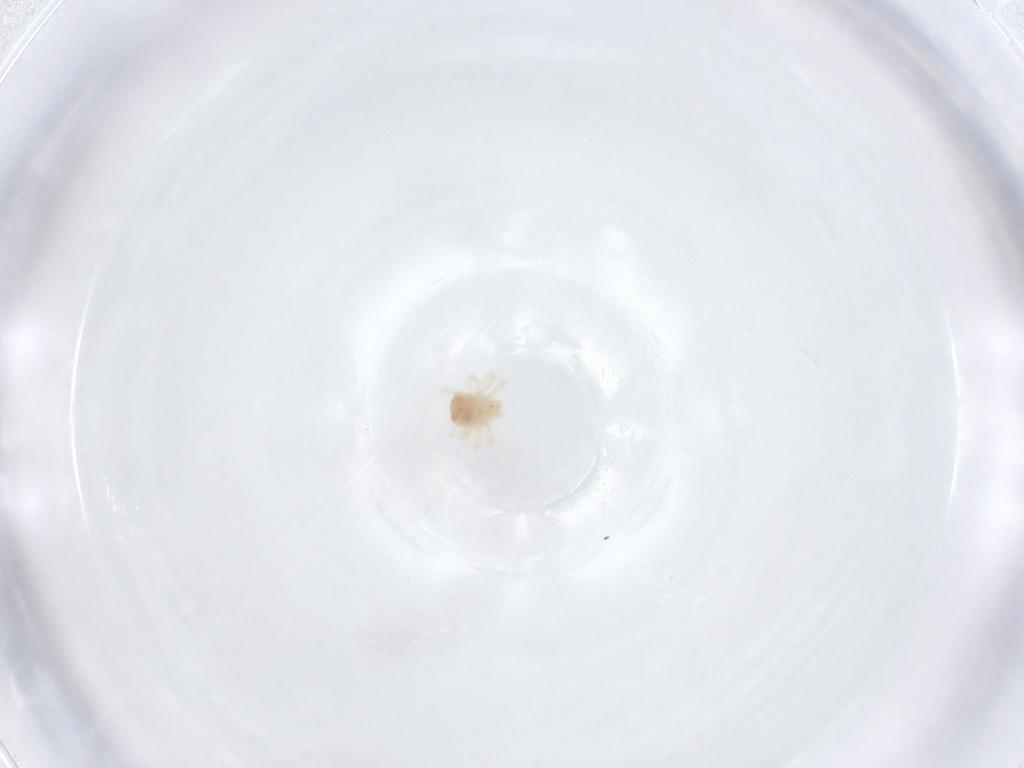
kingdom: Animalia
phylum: Arthropoda
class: Arachnida
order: Trombidiformes
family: Anystidae
